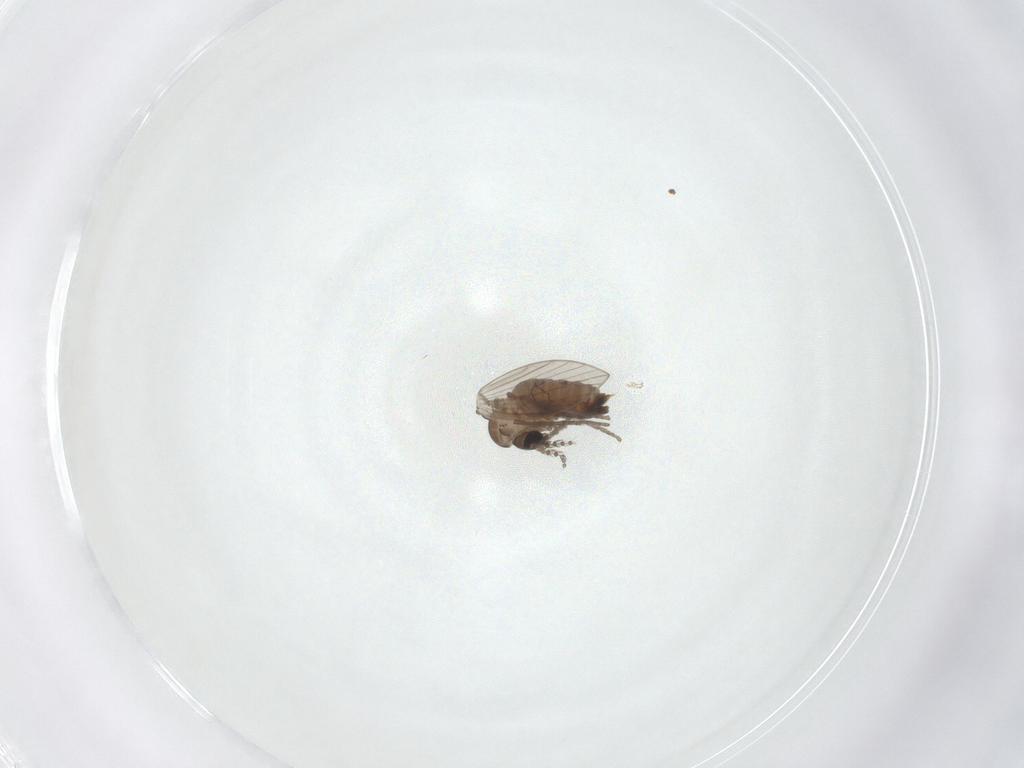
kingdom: Animalia
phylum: Arthropoda
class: Insecta
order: Diptera
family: Psychodidae
